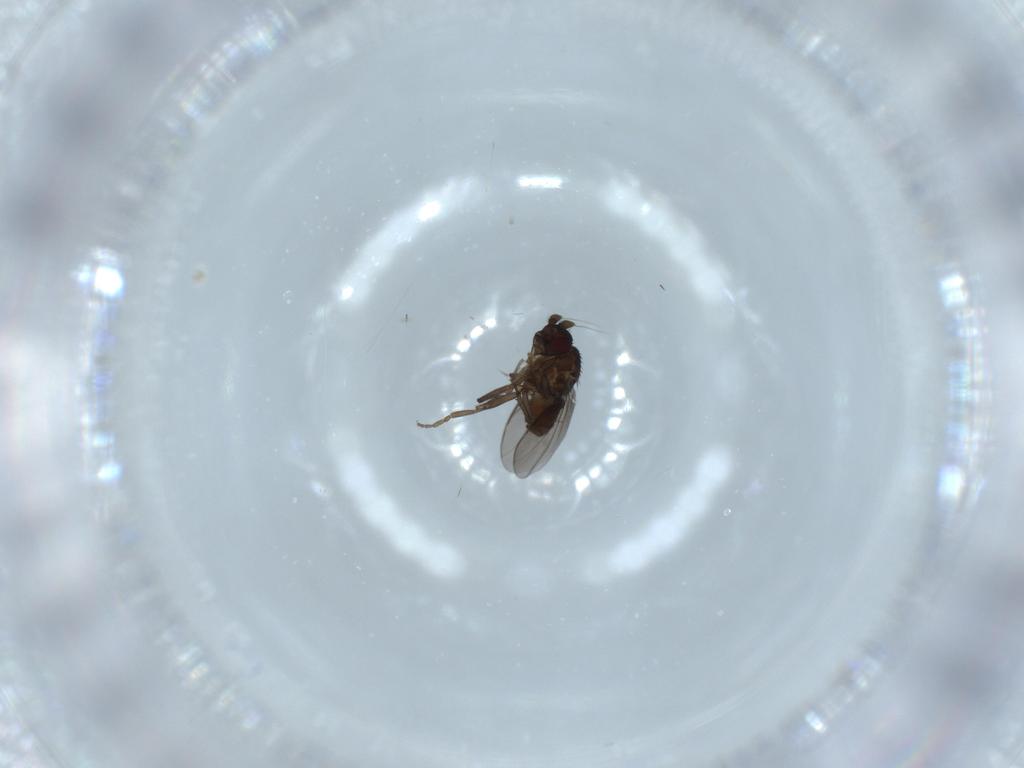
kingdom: Animalia
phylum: Arthropoda
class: Insecta
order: Diptera
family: Sphaeroceridae
